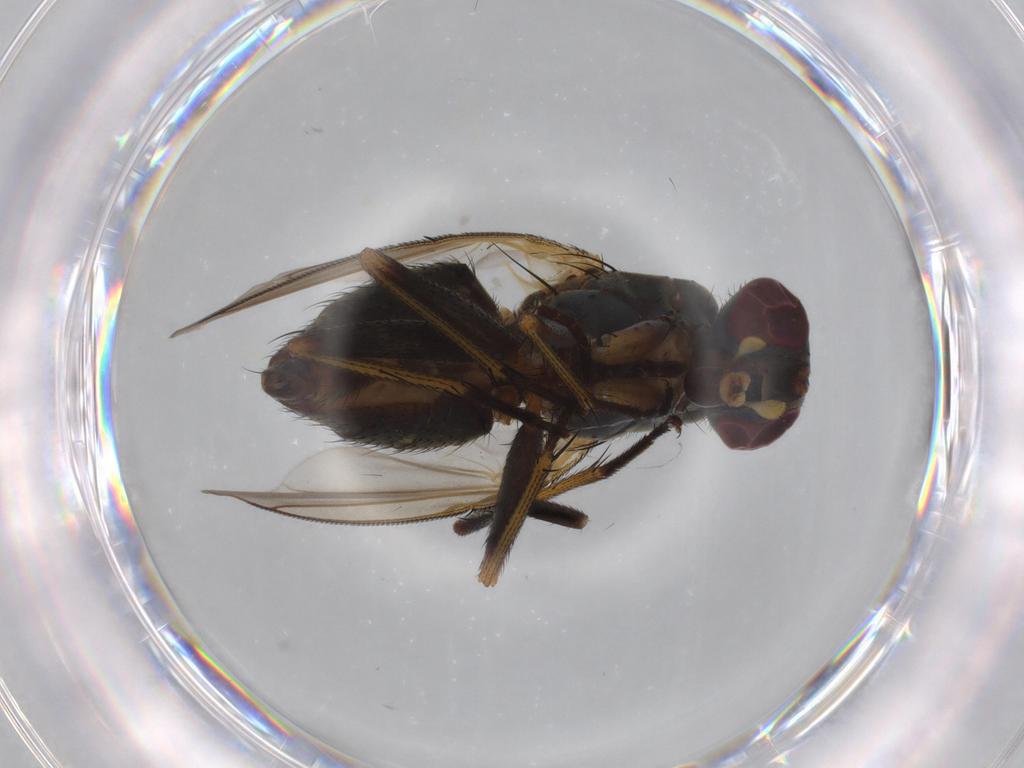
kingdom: Animalia
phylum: Arthropoda
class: Insecta
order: Diptera
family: Muscidae
